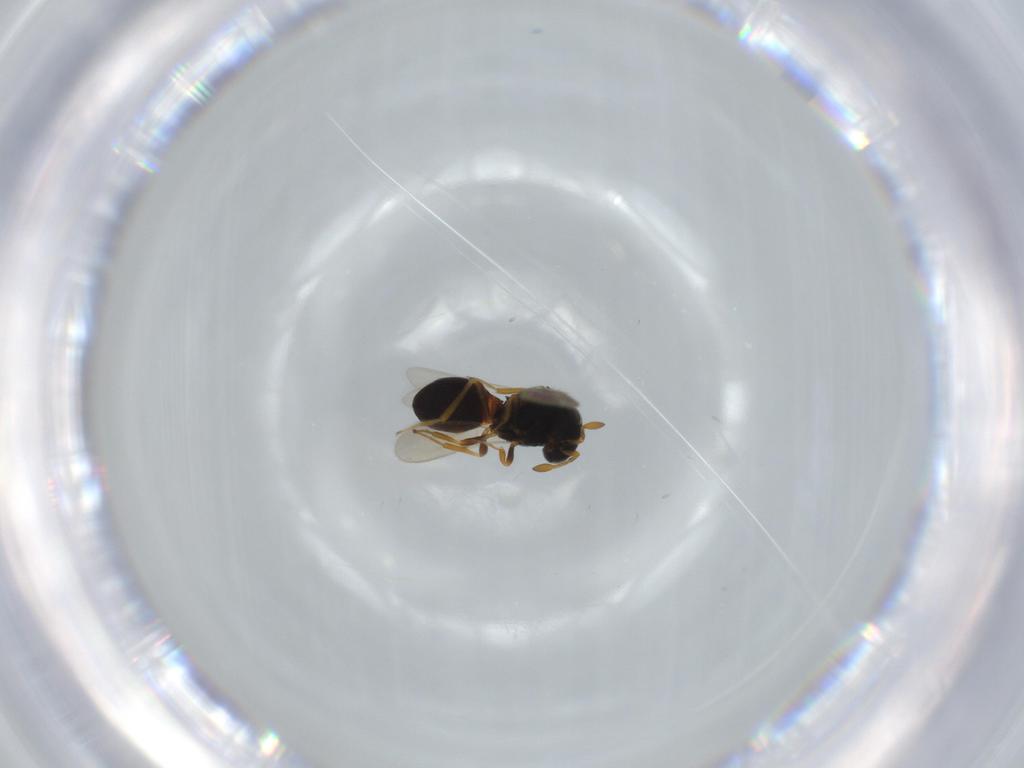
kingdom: Animalia
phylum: Arthropoda
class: Insecta
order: Hymenoptera
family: Scelionidae
